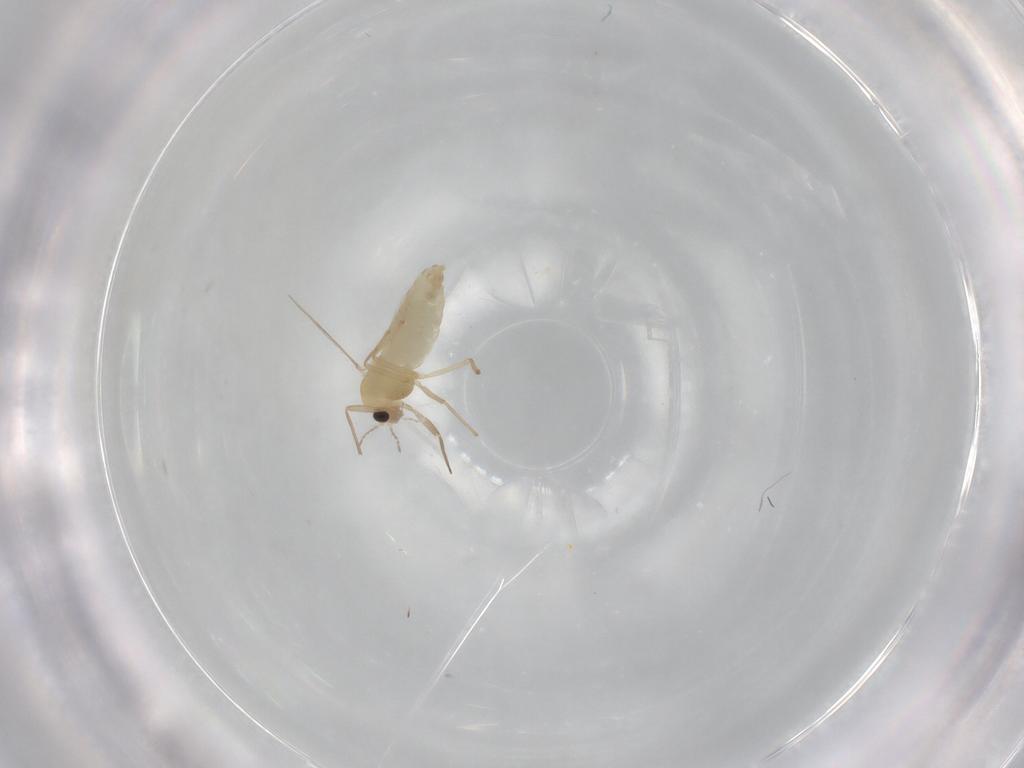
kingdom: Animalia
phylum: Arthropoda
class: Insecta
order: Diptera
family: Chironomidae
